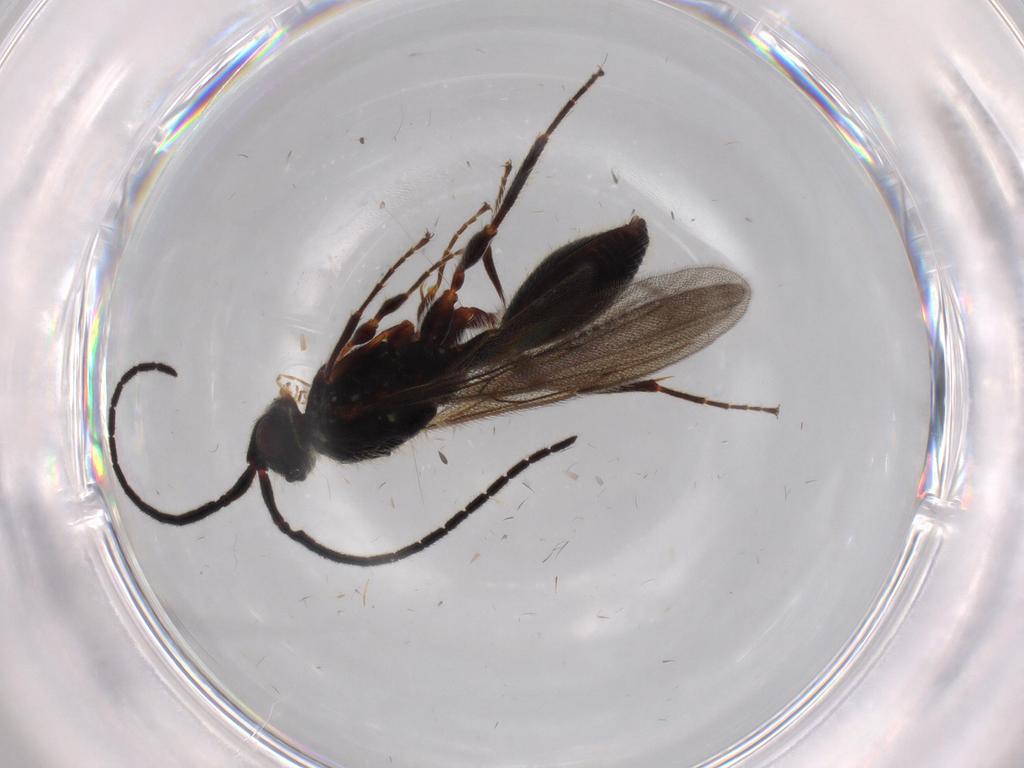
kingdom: Animalia
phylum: Arthropoda
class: Insecta
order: Hymenoptera
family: Diapriidae
